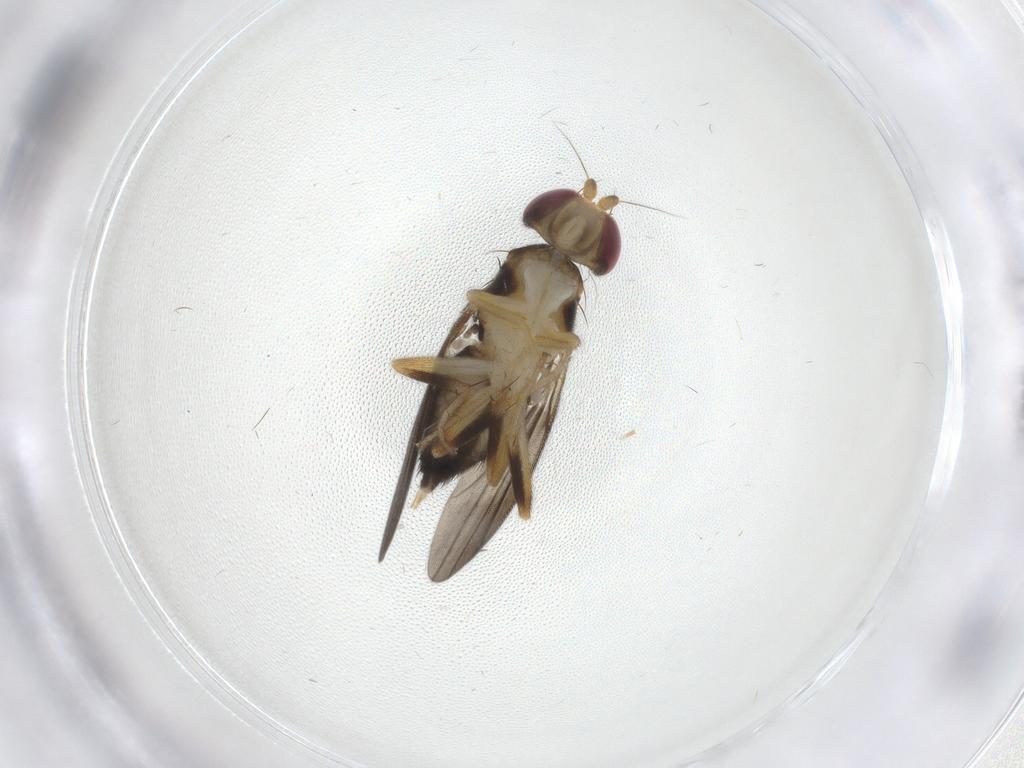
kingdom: Animalia
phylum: Arthropoda
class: Insecta
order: Diptera
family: Psychodidae
